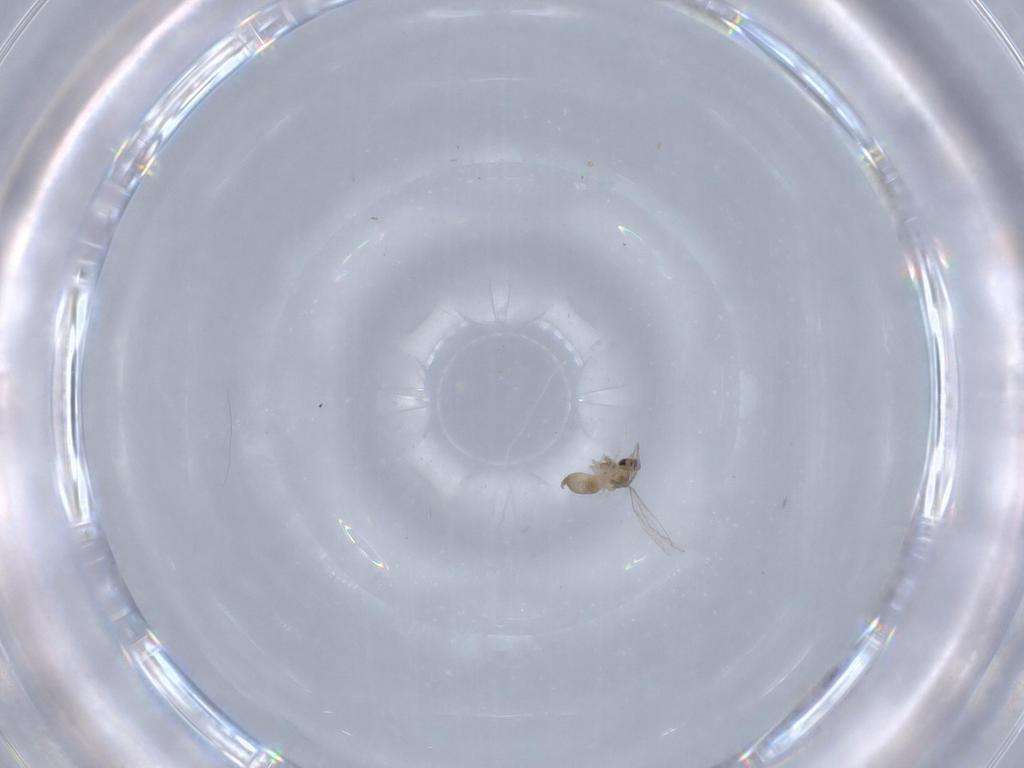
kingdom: Animalia
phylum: Arthropoda
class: Insecta
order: Diptera
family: Cecidomyiidae
